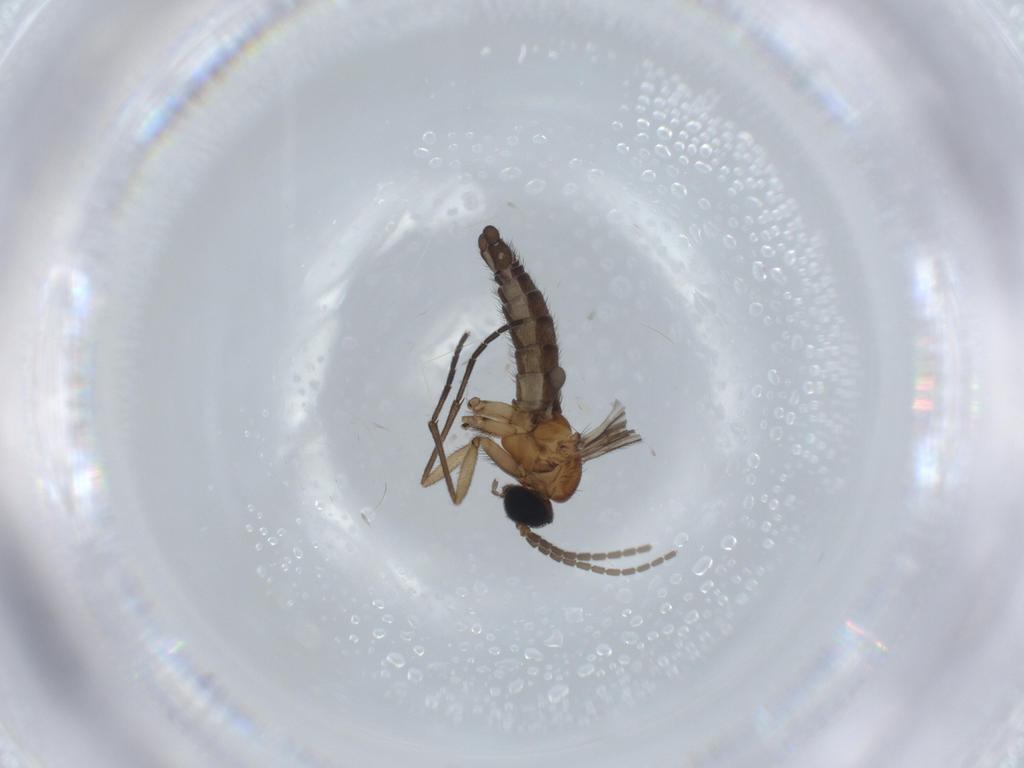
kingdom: Animalia
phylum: Arthropoda
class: Insecta
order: Diptera
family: Sciaridae
